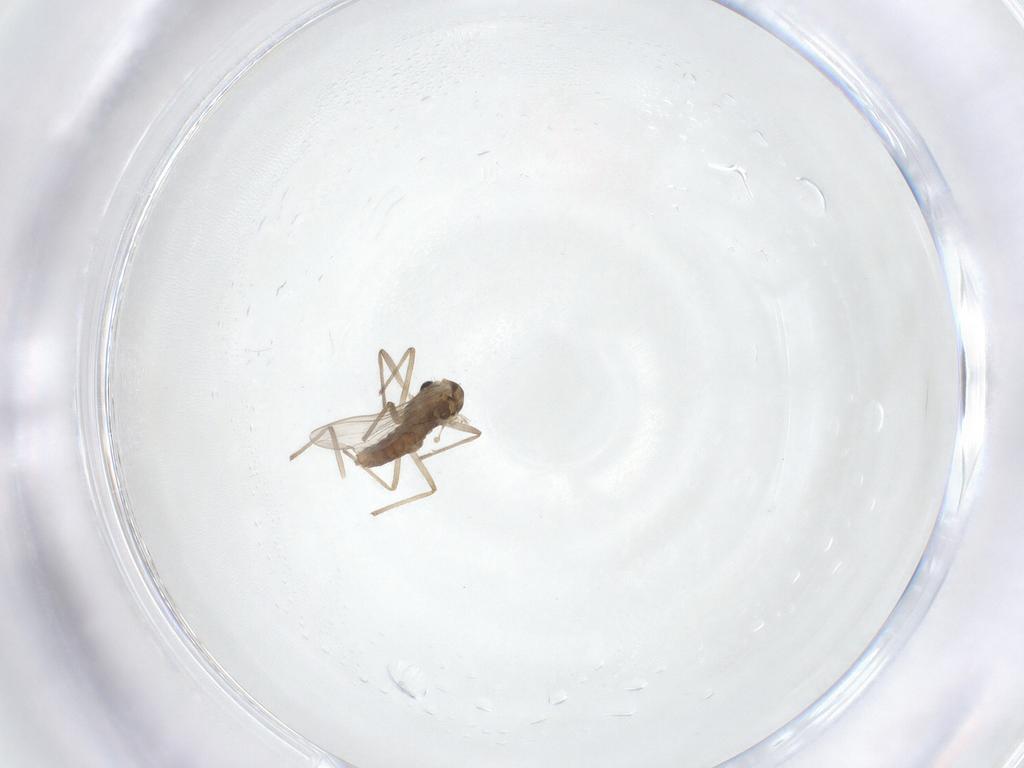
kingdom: Animalia
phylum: Arthropoda
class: Insecta
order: Diptera
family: Chironomidae
